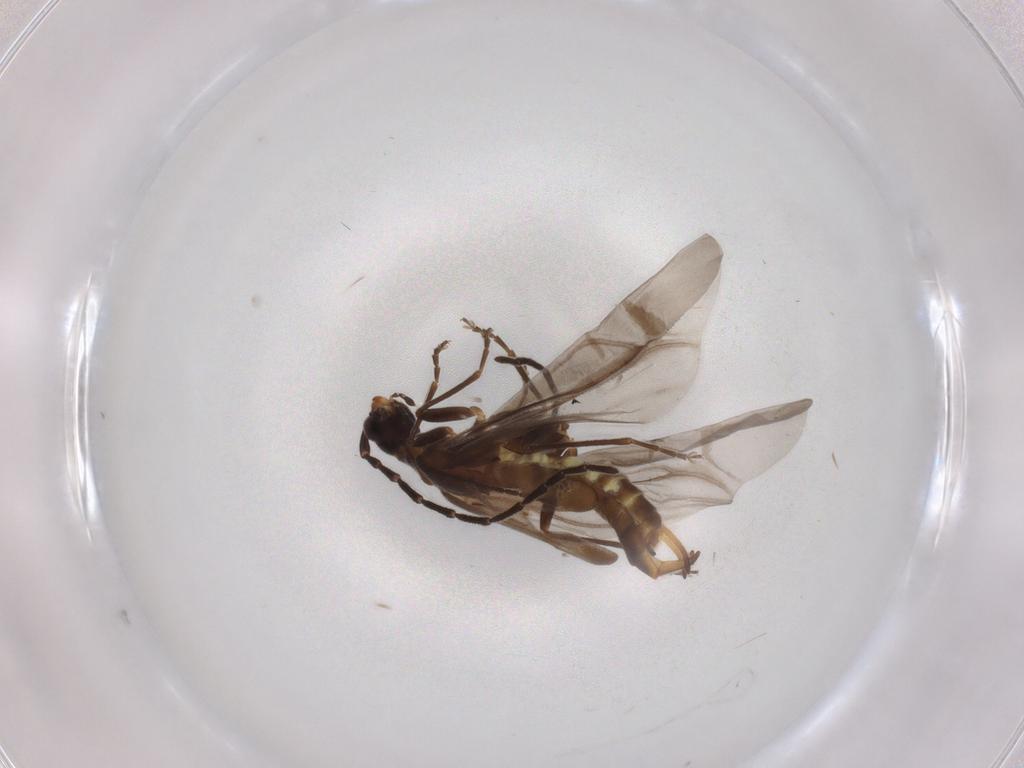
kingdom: Animalia
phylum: Arthropoda
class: Insecta
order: Coleoptera
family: Cantharidae
